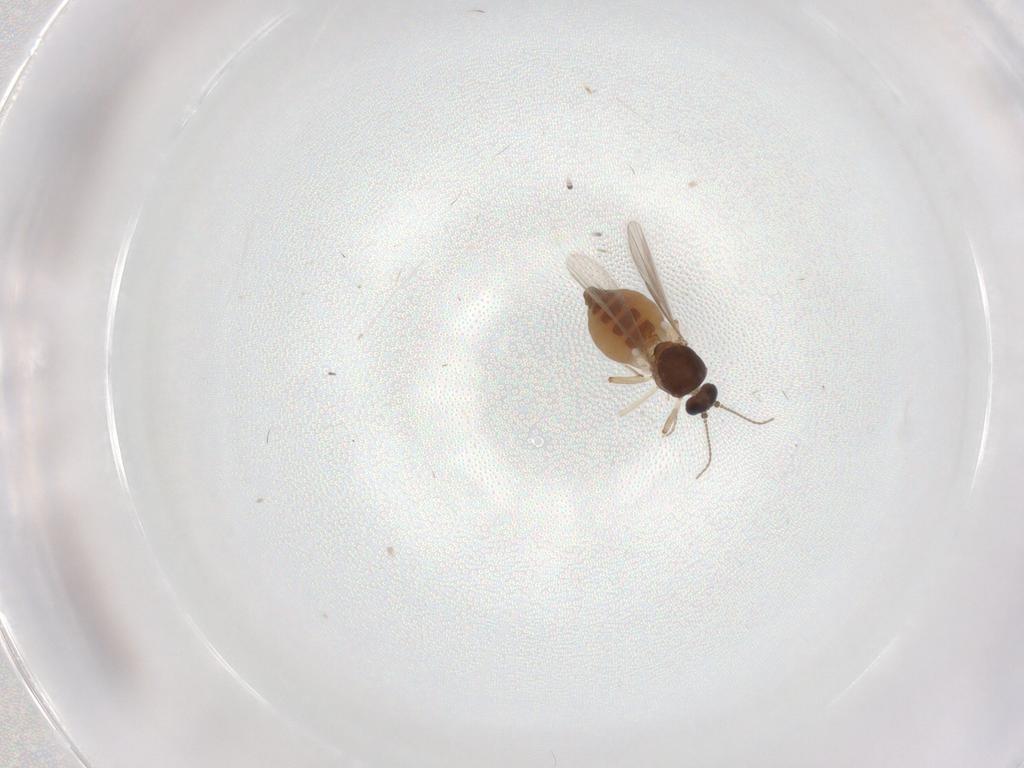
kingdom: Animalia
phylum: Arthropoda
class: Insecta
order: Diptera
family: Ceratopogonidae
